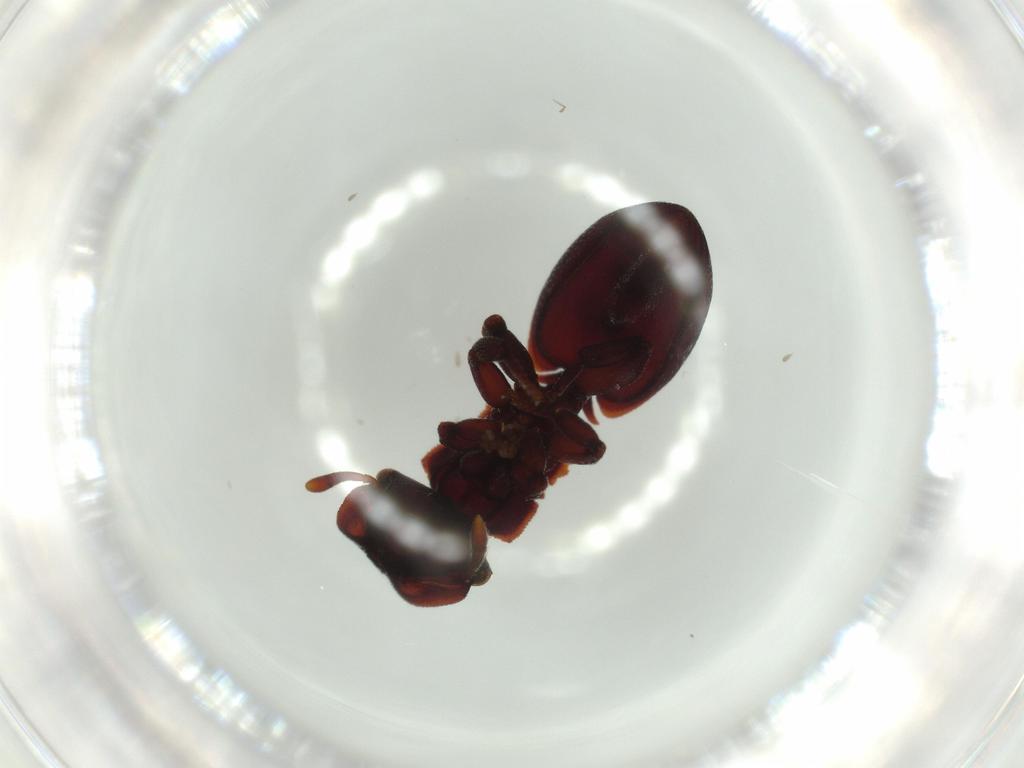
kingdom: Animalia
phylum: Arthropoda
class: Insecta
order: Hymenoptera
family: Formicidae
